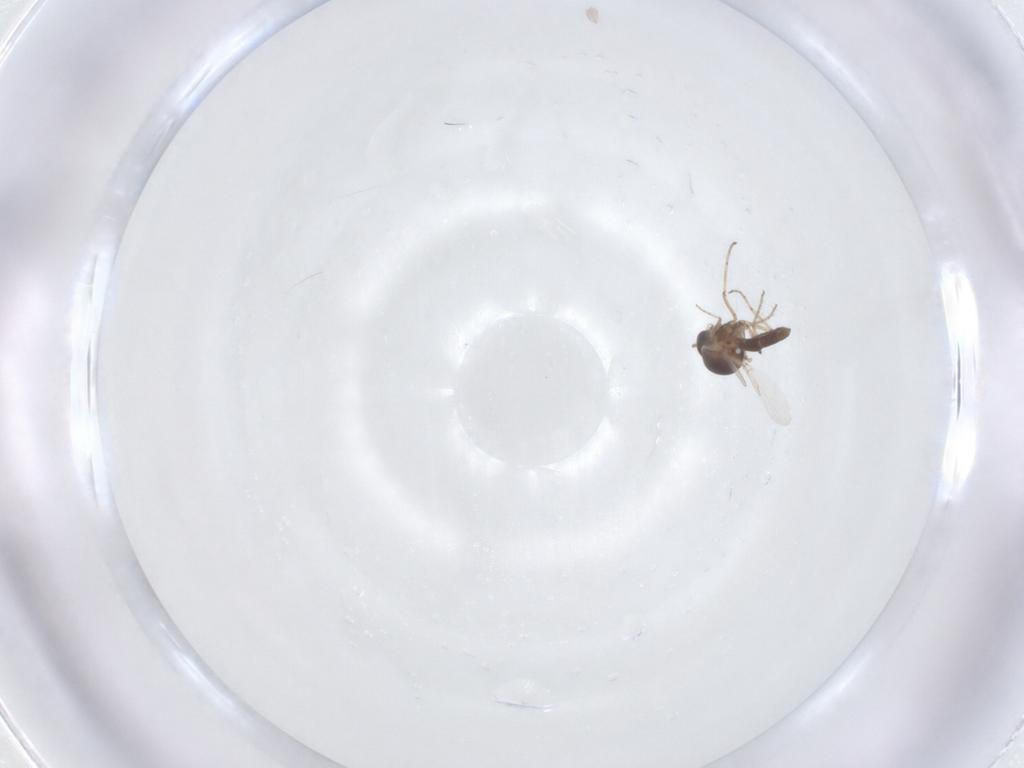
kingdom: Animalia
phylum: Arthropoda
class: Insecta
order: Diptera
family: Ceratopogonidae
